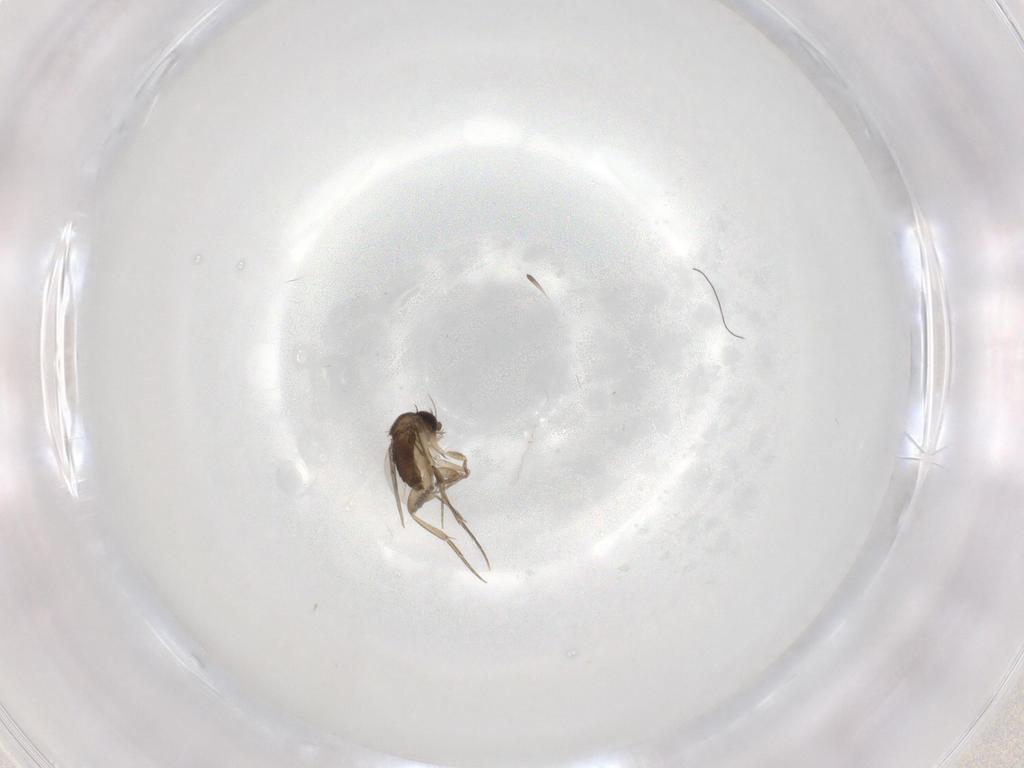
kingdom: Animalia
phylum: Arthropoda
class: Insecta
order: Diptera
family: Phoridae
